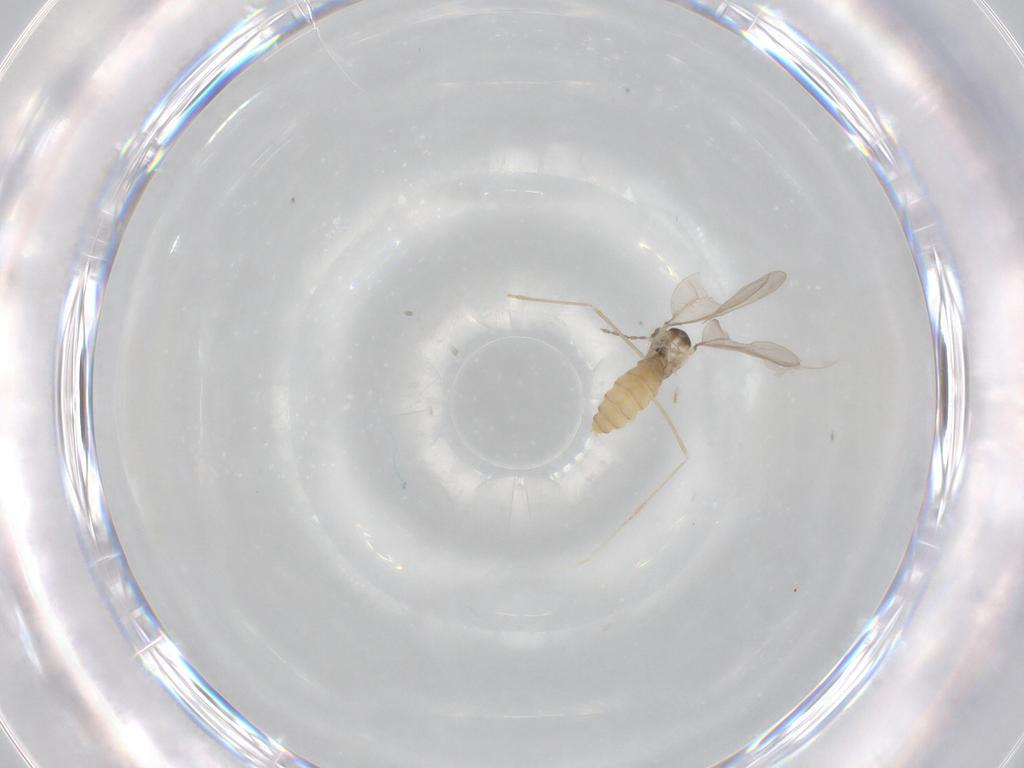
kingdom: Animalia
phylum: Arthropoda
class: Insecta
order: Diptera
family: Cecidomyiidae
